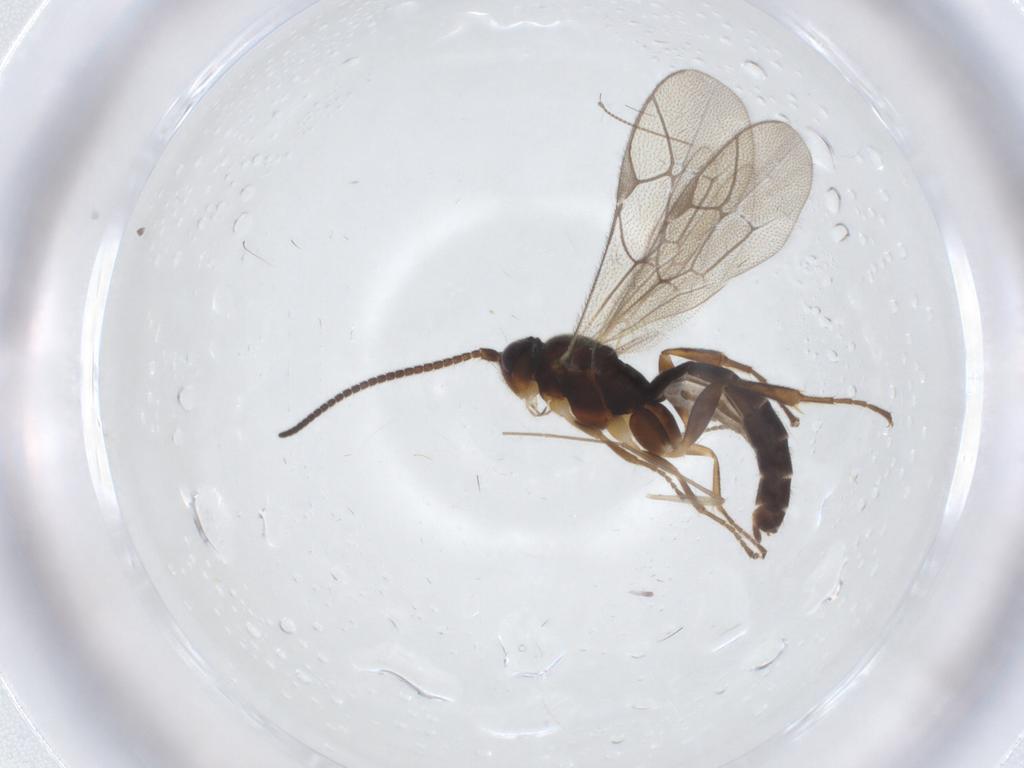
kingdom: Animalia
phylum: Arthropoda
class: Insecta
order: Hymenoptera
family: Ichneumonidae
